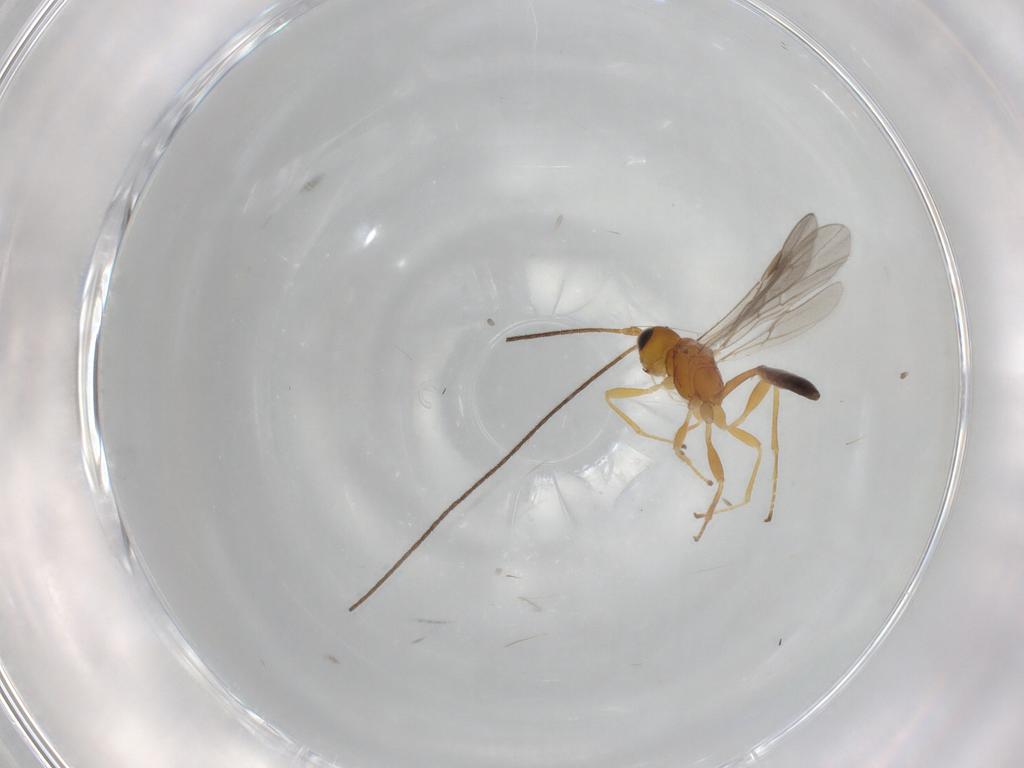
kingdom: Animalia
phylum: Arthropoda
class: Insecta
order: Hymenoptera
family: Braconidae
